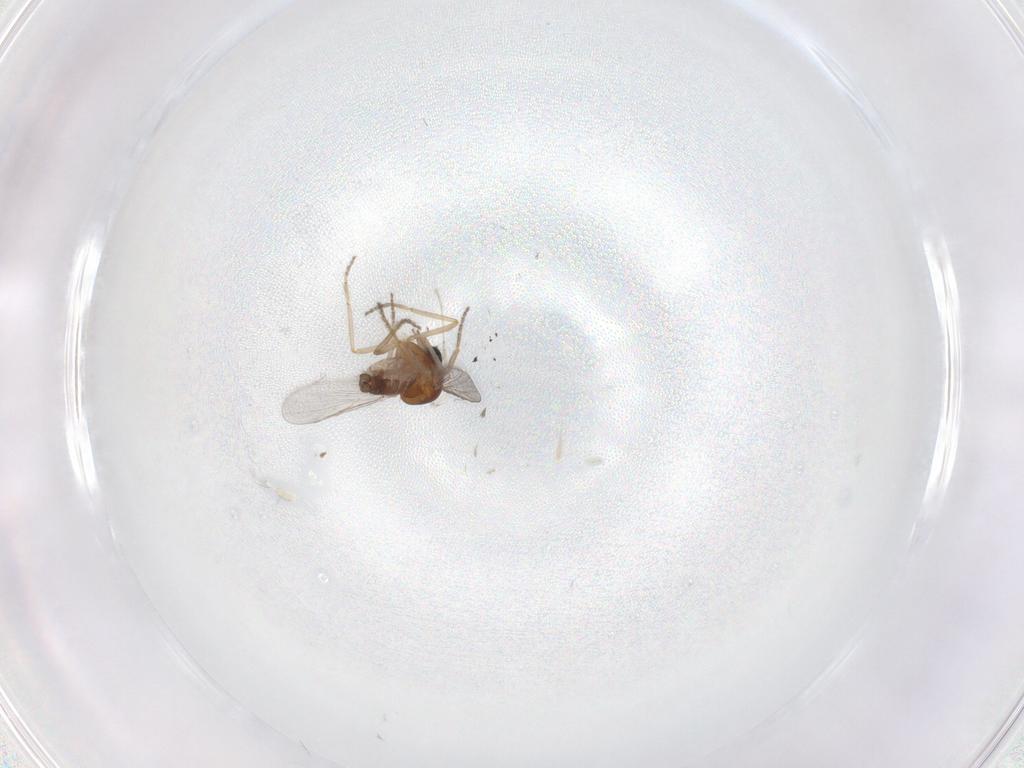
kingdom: Animalia
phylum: Arthropoda
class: Insecta
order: Diptera
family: Ceratopogonidae
